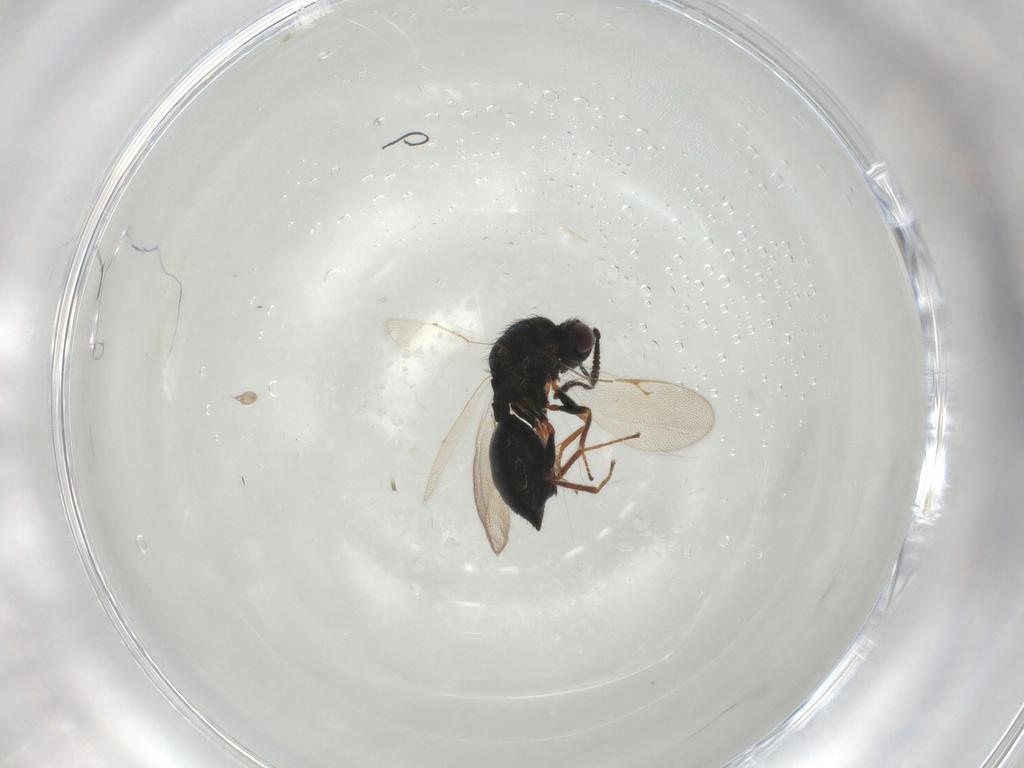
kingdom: Animalia
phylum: Arthropoda
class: Insecta
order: Hymenoptera
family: Chalcidoidea_incertae_sedis
